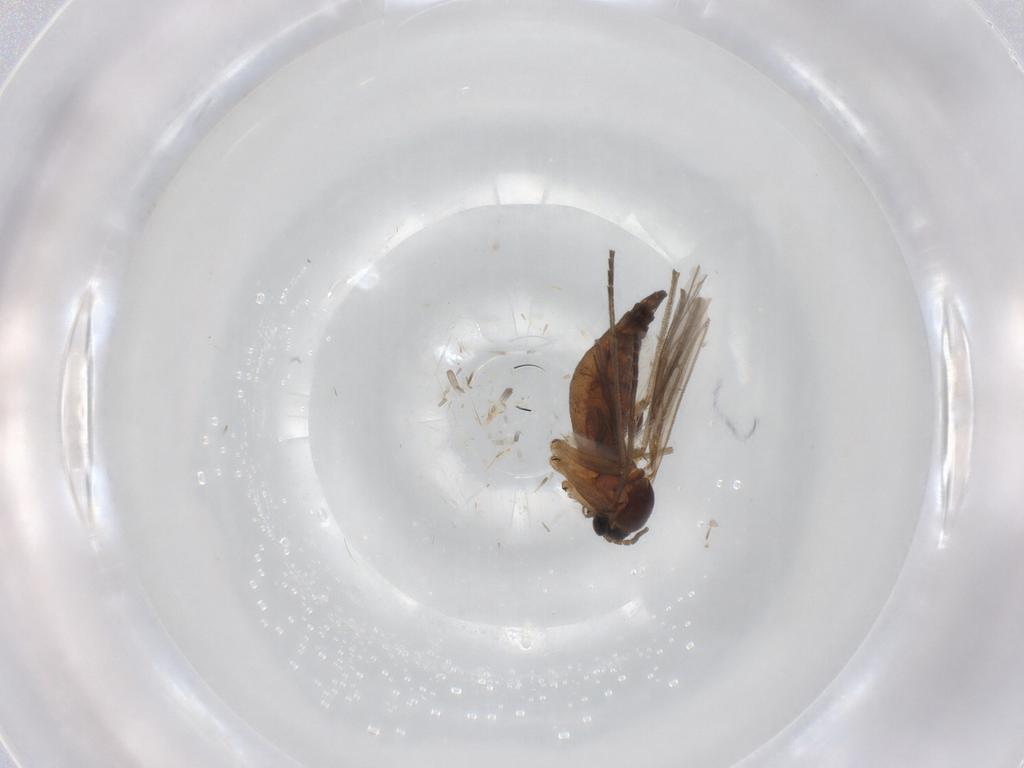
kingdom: Animalia
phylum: Arthropoda
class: Insecta
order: Diptera
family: Sciaridae
